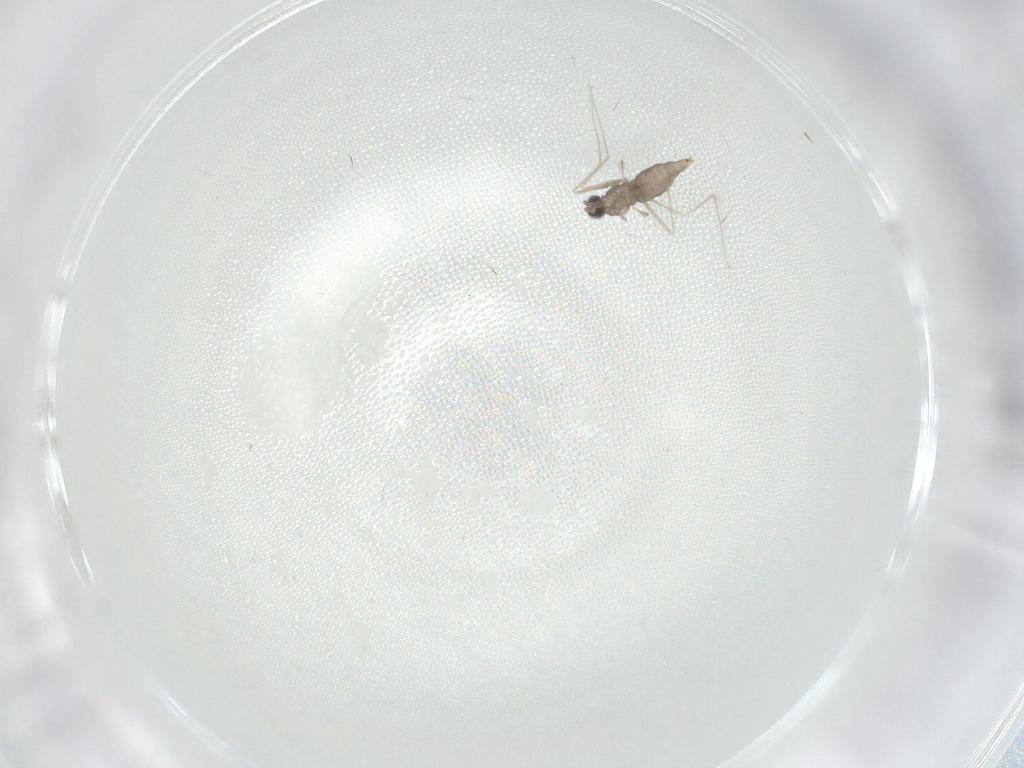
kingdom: Animalia
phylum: Arthropoda
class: Insecta
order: Diptera
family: Cecidomyiidae
